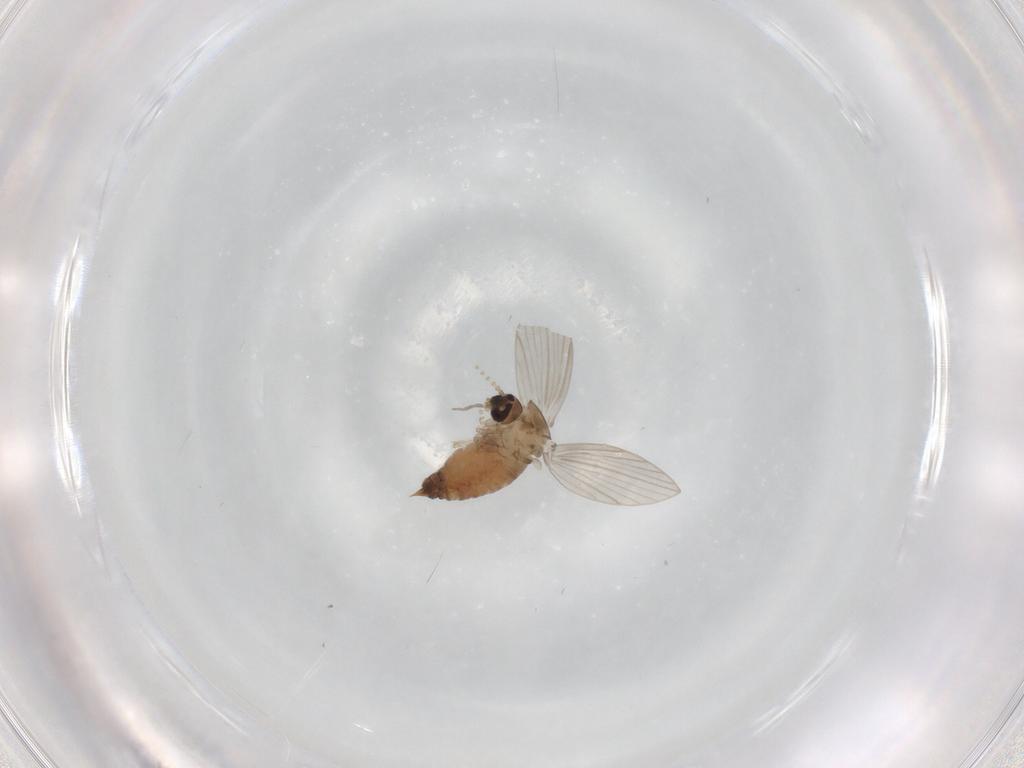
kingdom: Animalia
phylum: Arthropoda
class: Insecta
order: Diptera
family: Psychodidae
